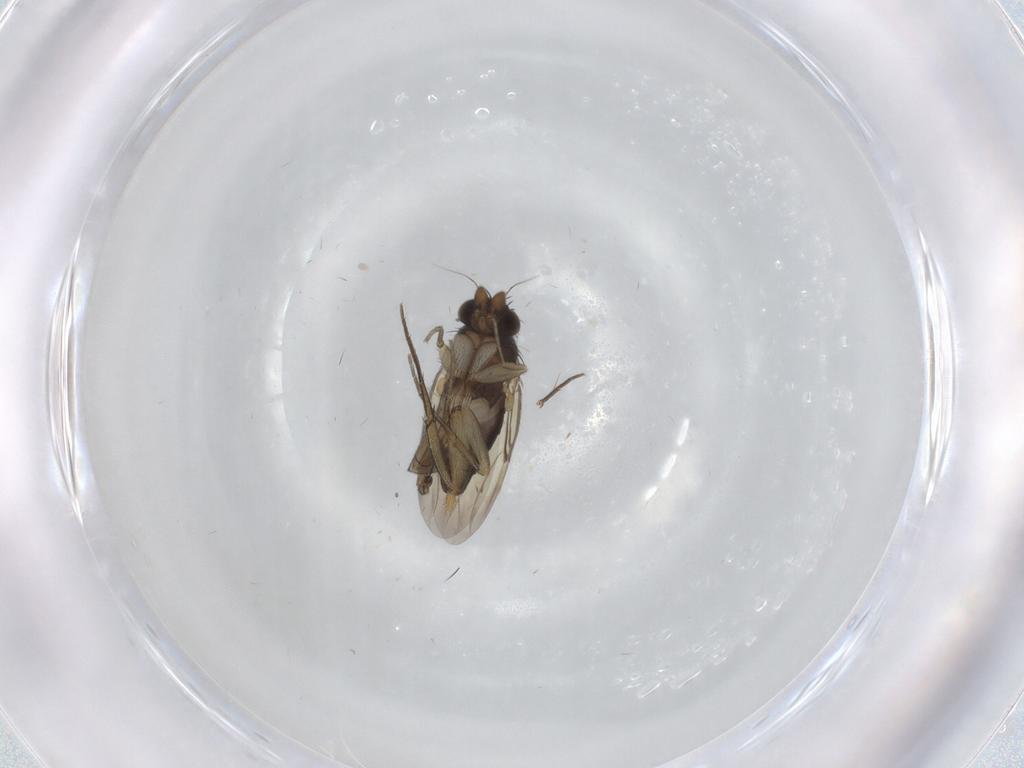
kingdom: Animalia
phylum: Arthropoda
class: Insecta
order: Diptera
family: Phoridae
